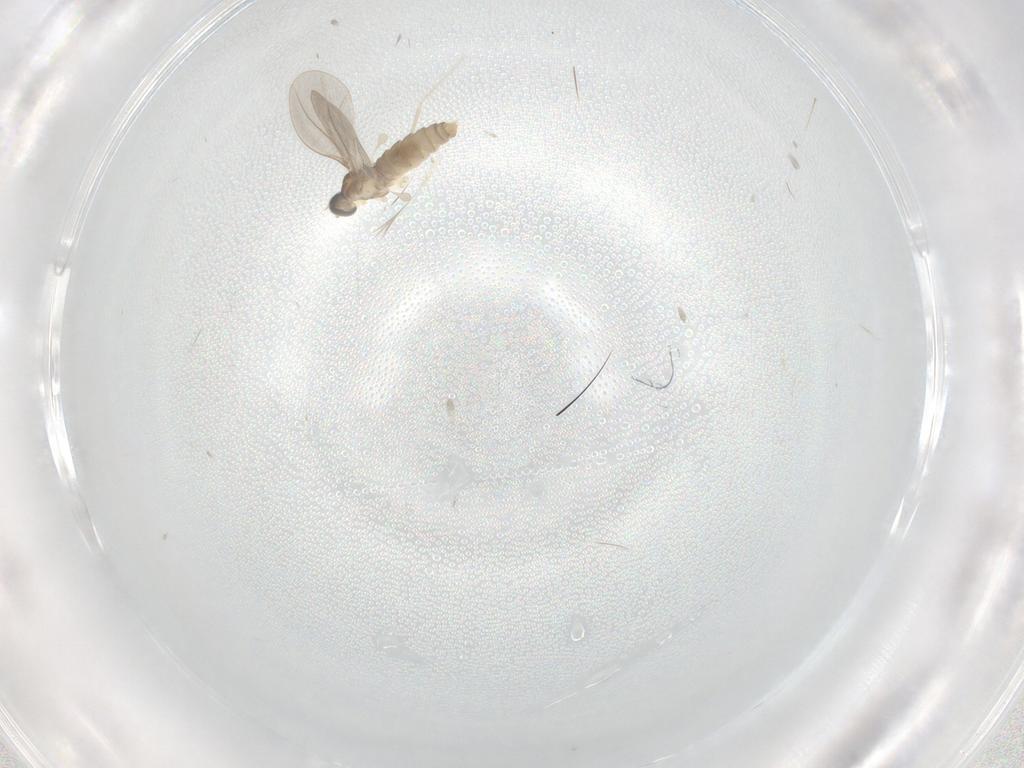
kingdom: Animalia
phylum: Arthropoda
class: Insecta
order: Diptera
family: Cecidomyiidae
